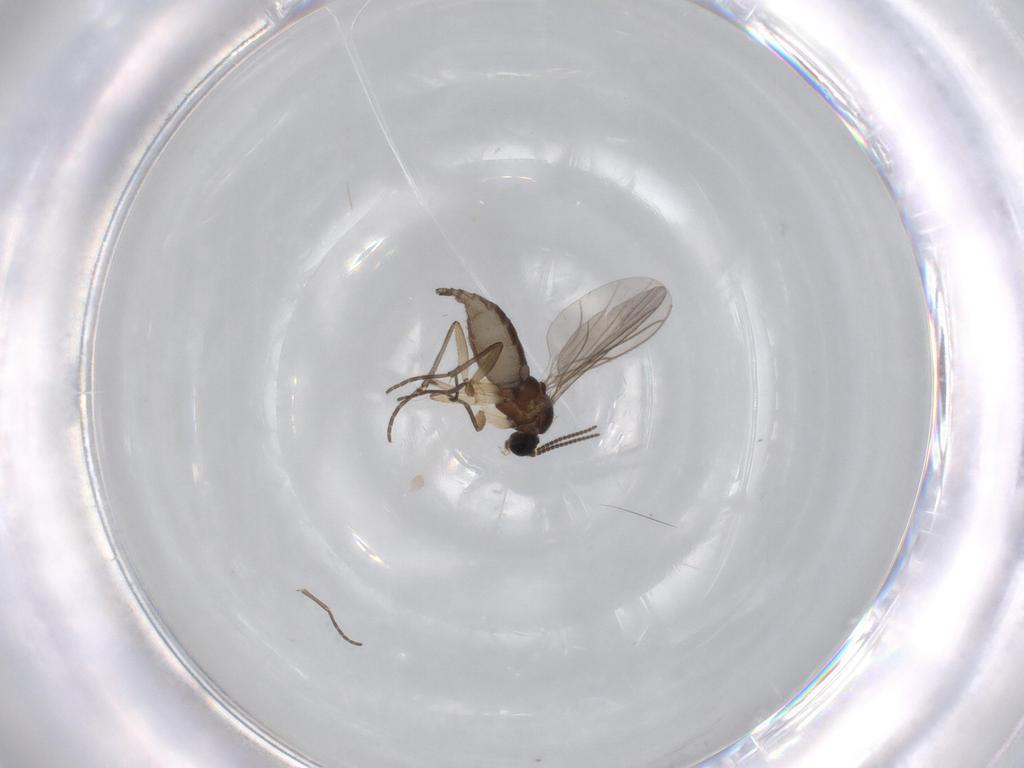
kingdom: Animalia
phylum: Arthropoda
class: Insecta
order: Diptera
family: Sciaridae
